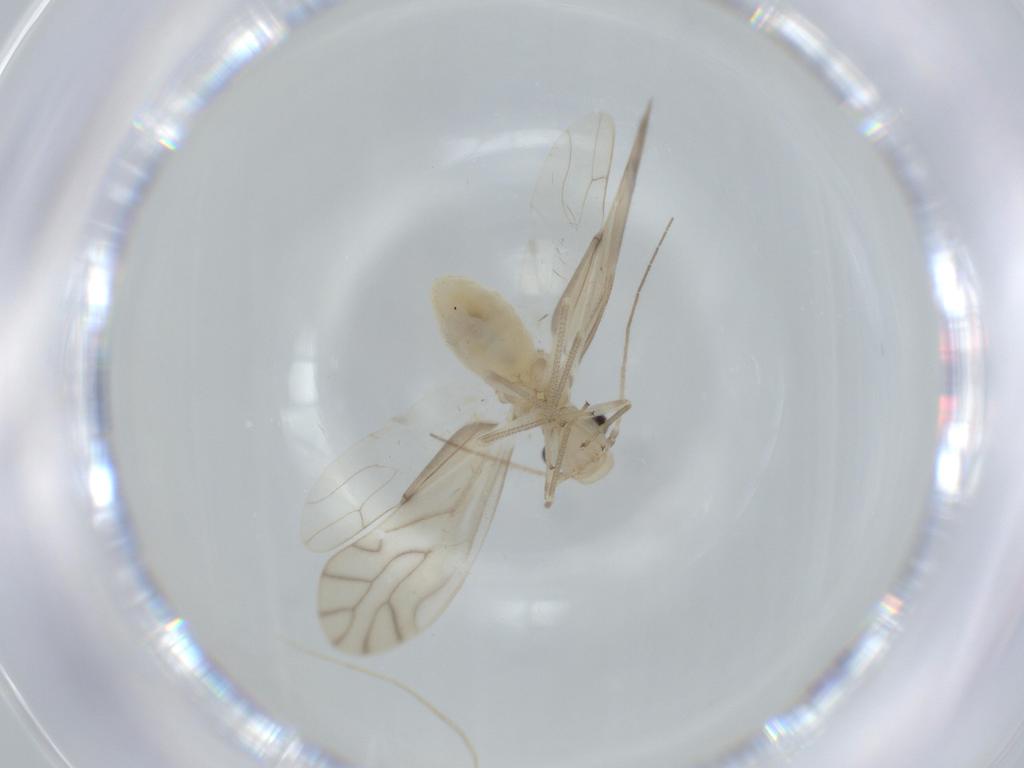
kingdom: Animalia
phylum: Arthropoda
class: Insecta
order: Psocodea
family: Caeciliusidae
